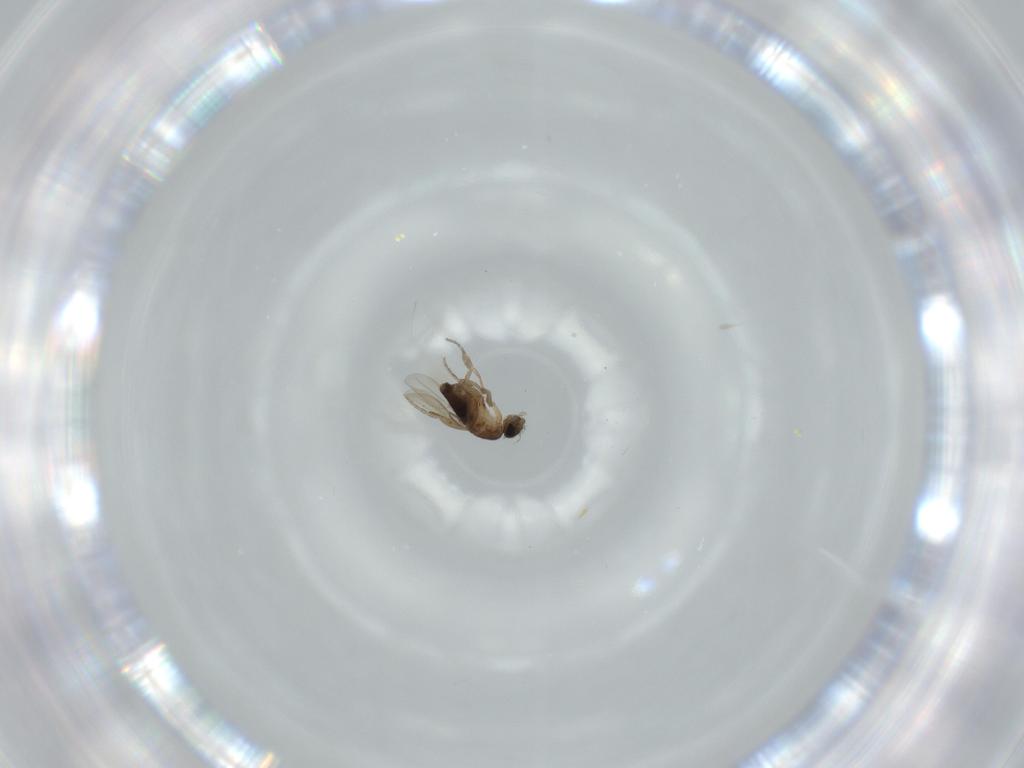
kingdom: Animalia
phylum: Arthropoda
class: Insecta
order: Diptera
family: Phoridae
